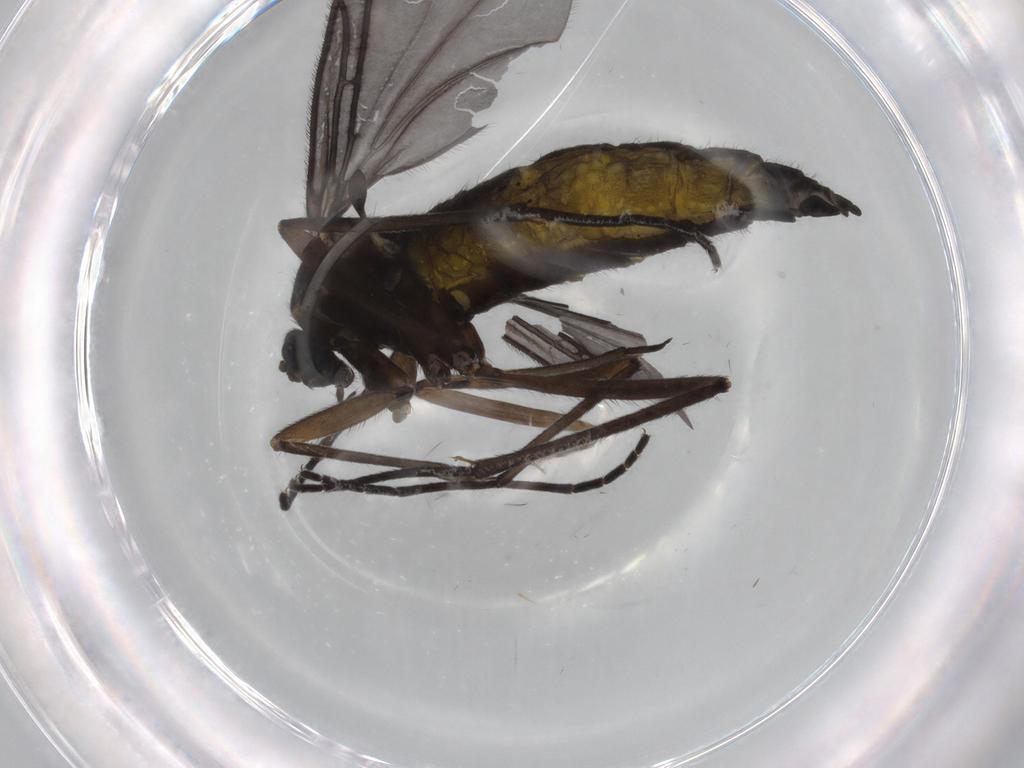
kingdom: Animalia
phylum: Arthropoda
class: Insecta
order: Diptera
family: Sciaridae
